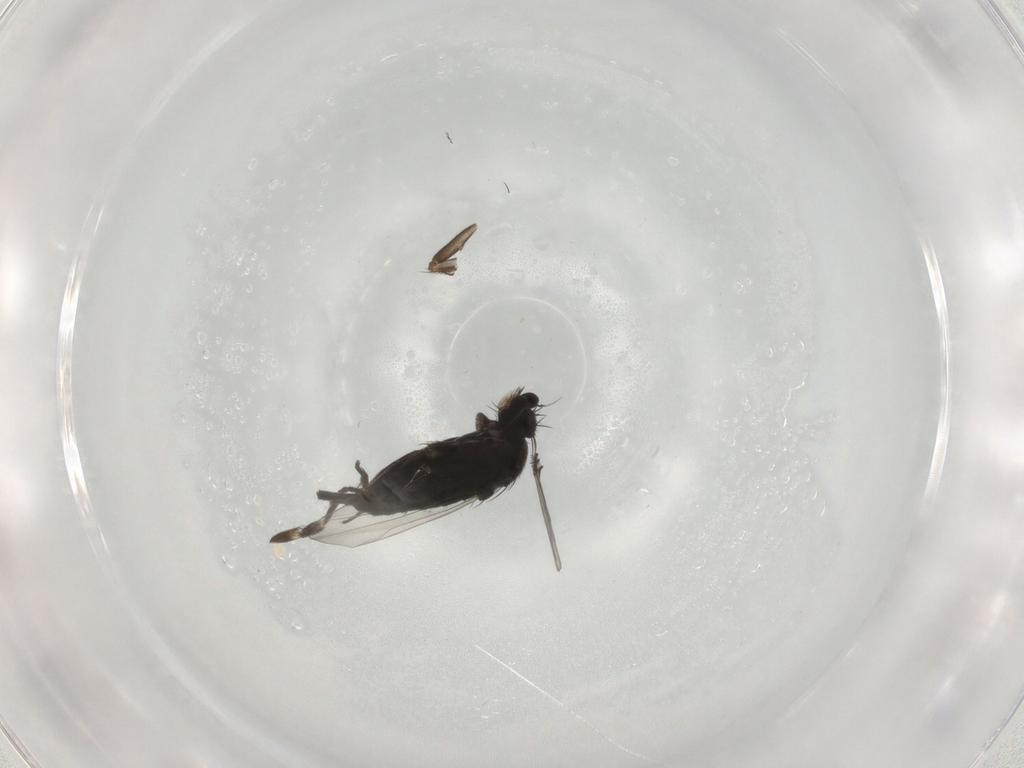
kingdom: Animalia
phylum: Arthropoda
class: Insecta
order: Diptera
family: Phoridae
